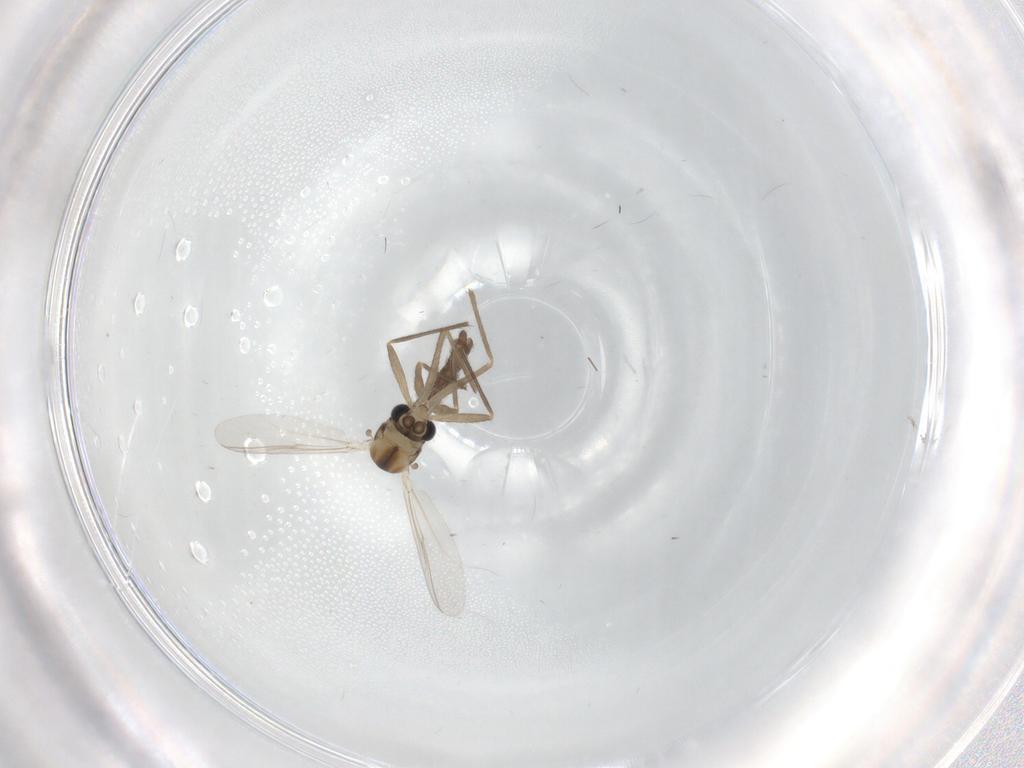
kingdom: Animalia
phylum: Arthropoda
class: Insecta
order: Diptera
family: Chironomidae
